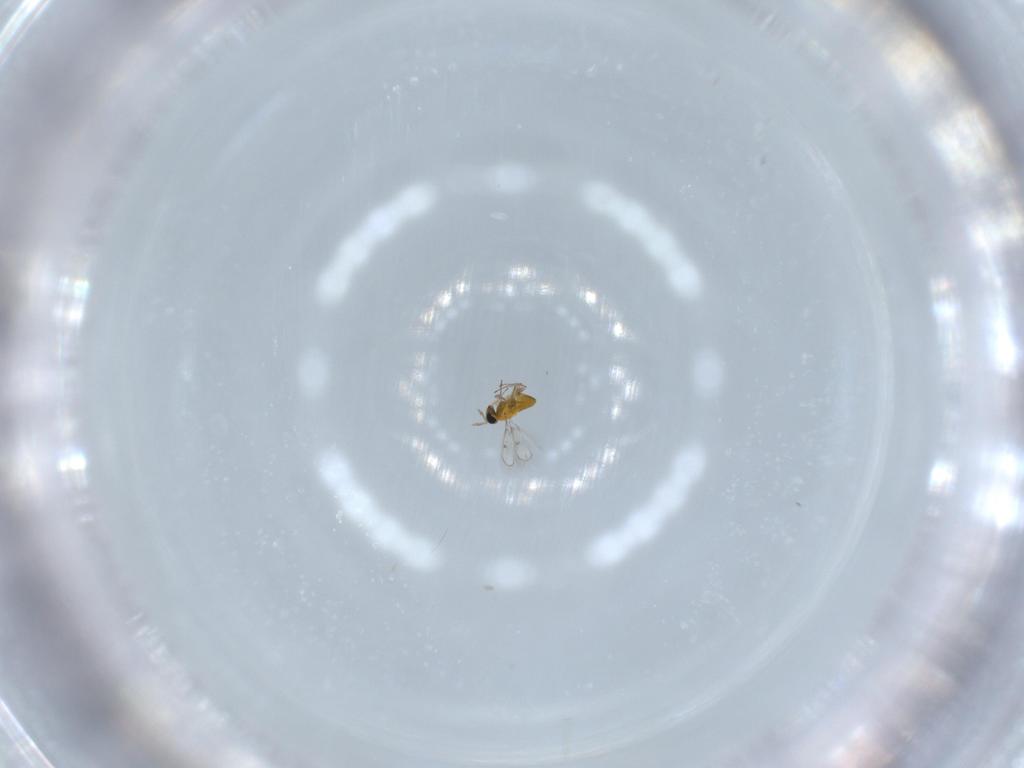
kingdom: Animalia
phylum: Arthropoda
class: Insecta
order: Hymenoptera
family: Trichogrammatidae
